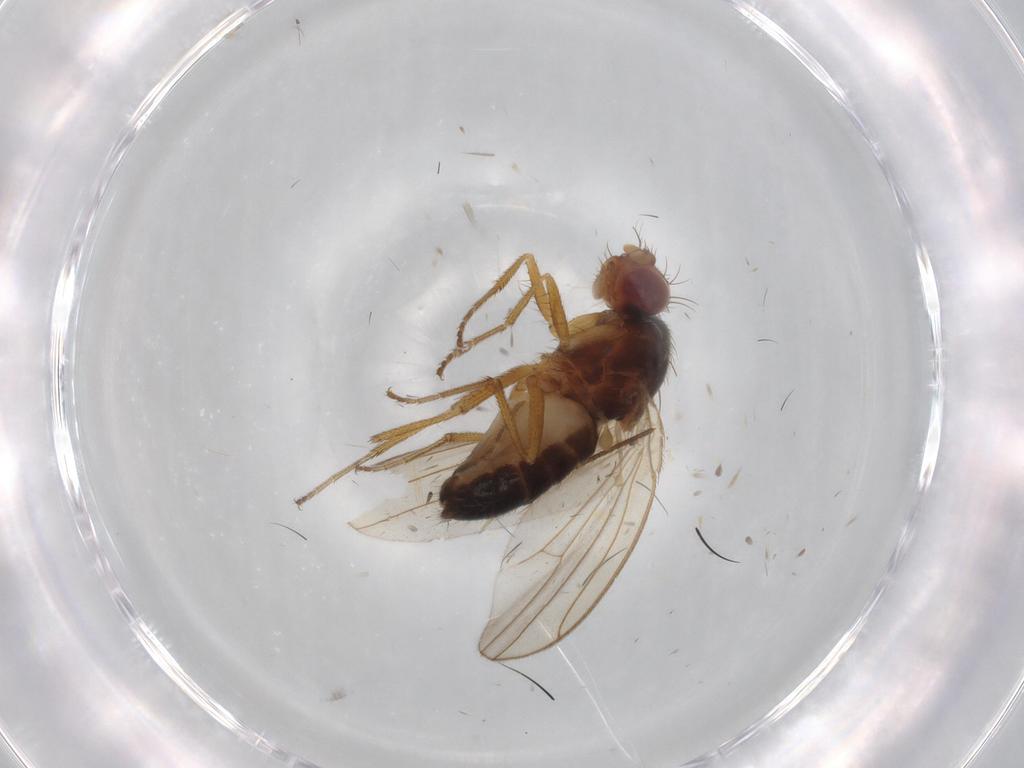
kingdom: Animalia
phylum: Arthropoda
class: Insecta
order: Diptera
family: Drosophilidae
